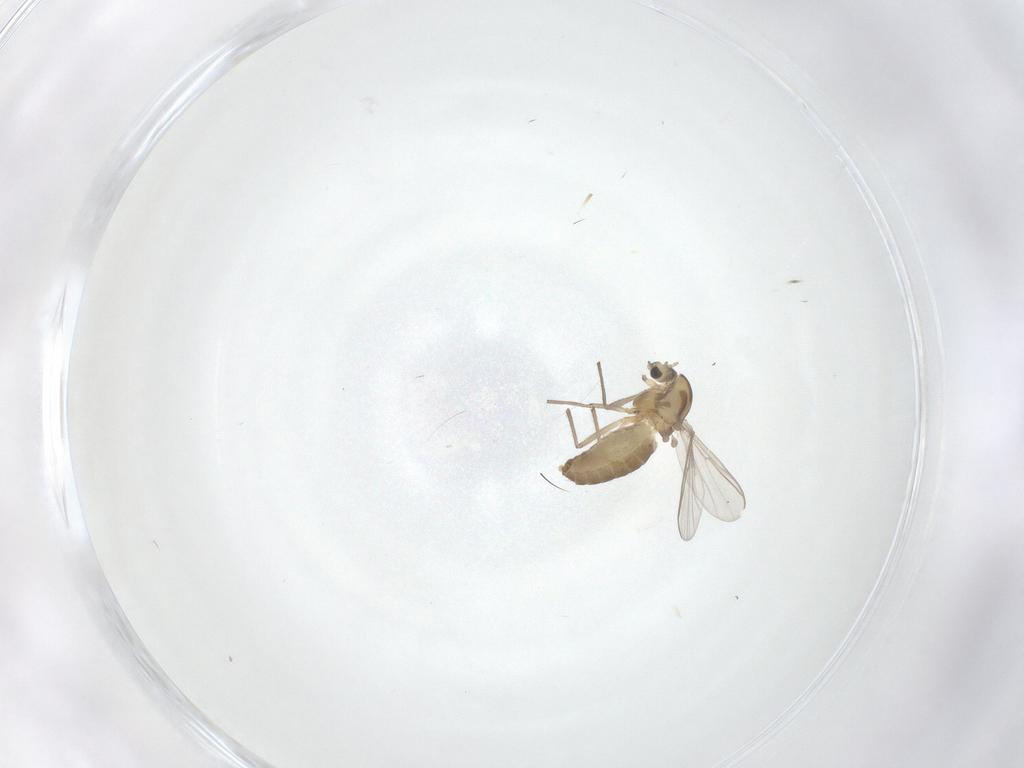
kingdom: Animalia
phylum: Arthropoda
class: Insecta
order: Diptera
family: Chironomidae
